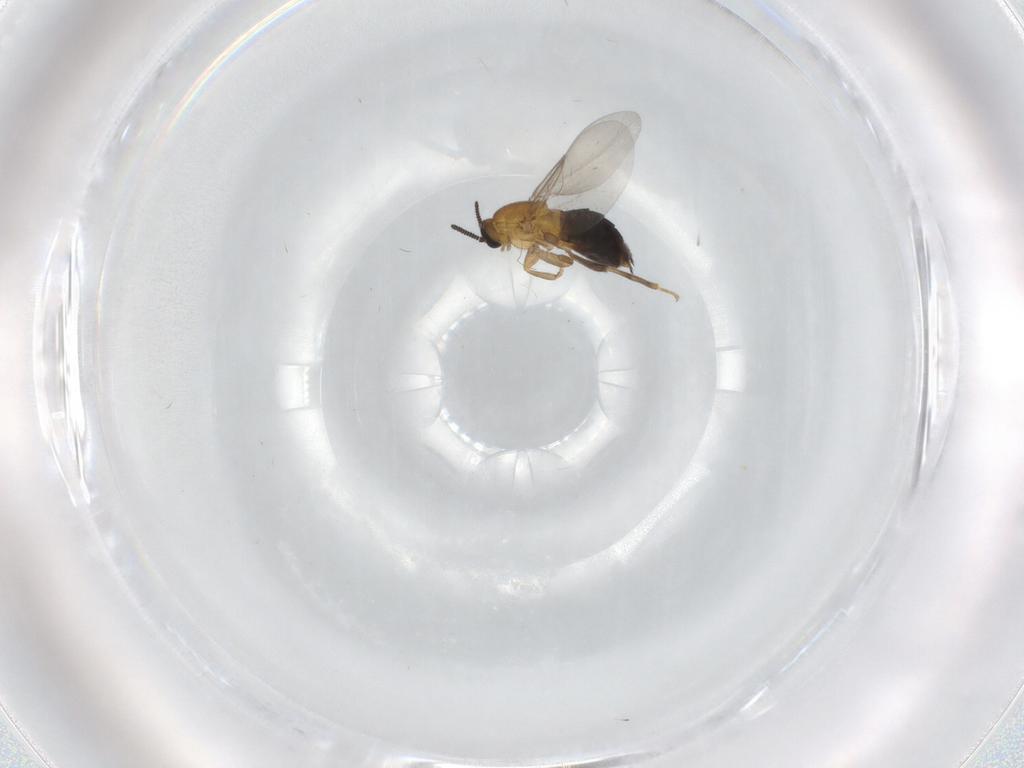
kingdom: Animalia
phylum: Arthropoda
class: Insecta
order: Diptera
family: Scatopsidae
